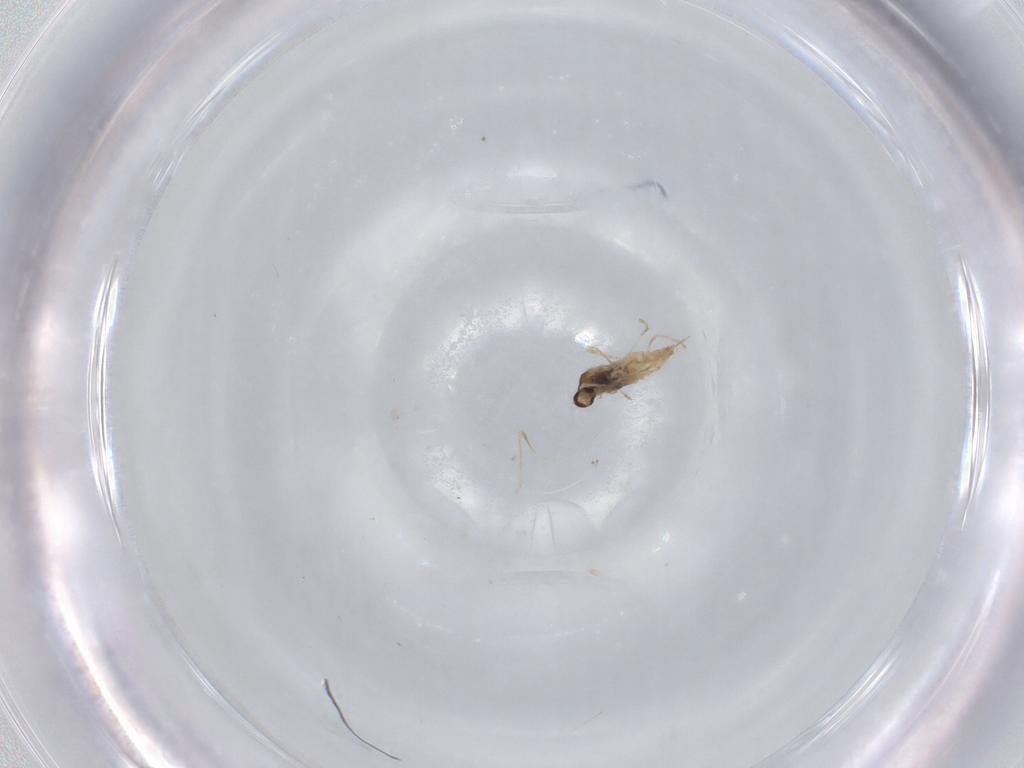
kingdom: Animalia
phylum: Arthropoda
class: Insecta
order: Diptera
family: Cecidomyiidae
